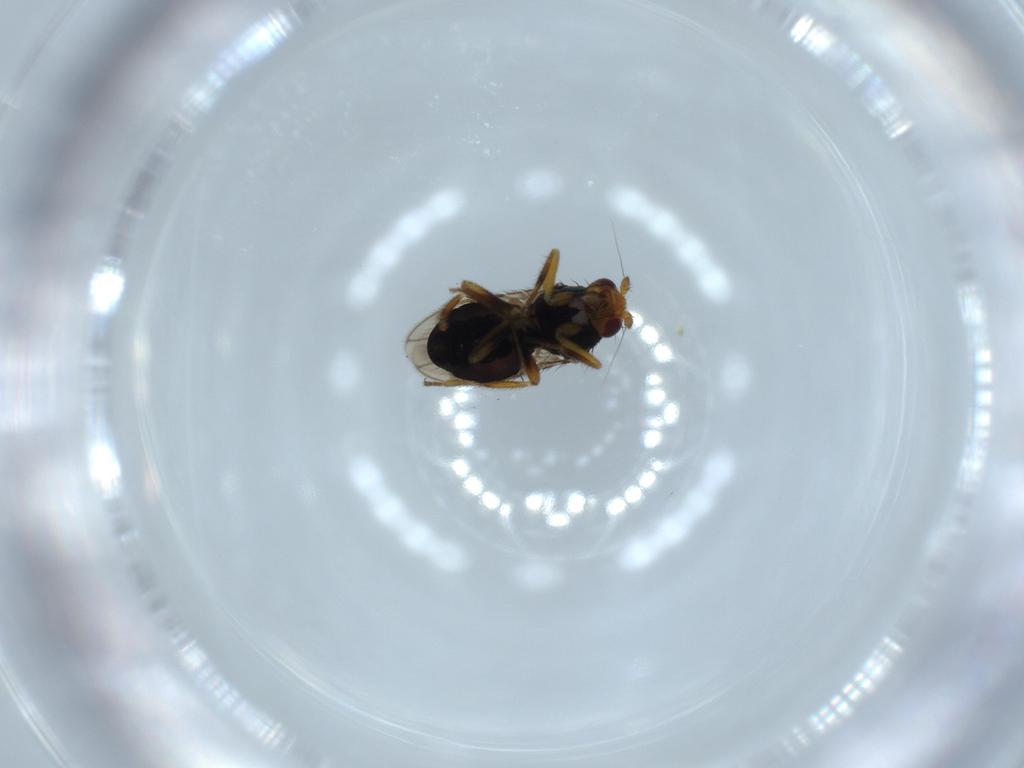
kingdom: Animalia
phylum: Arthropoda
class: Insecta
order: Diptera
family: Sphaeroceridae
